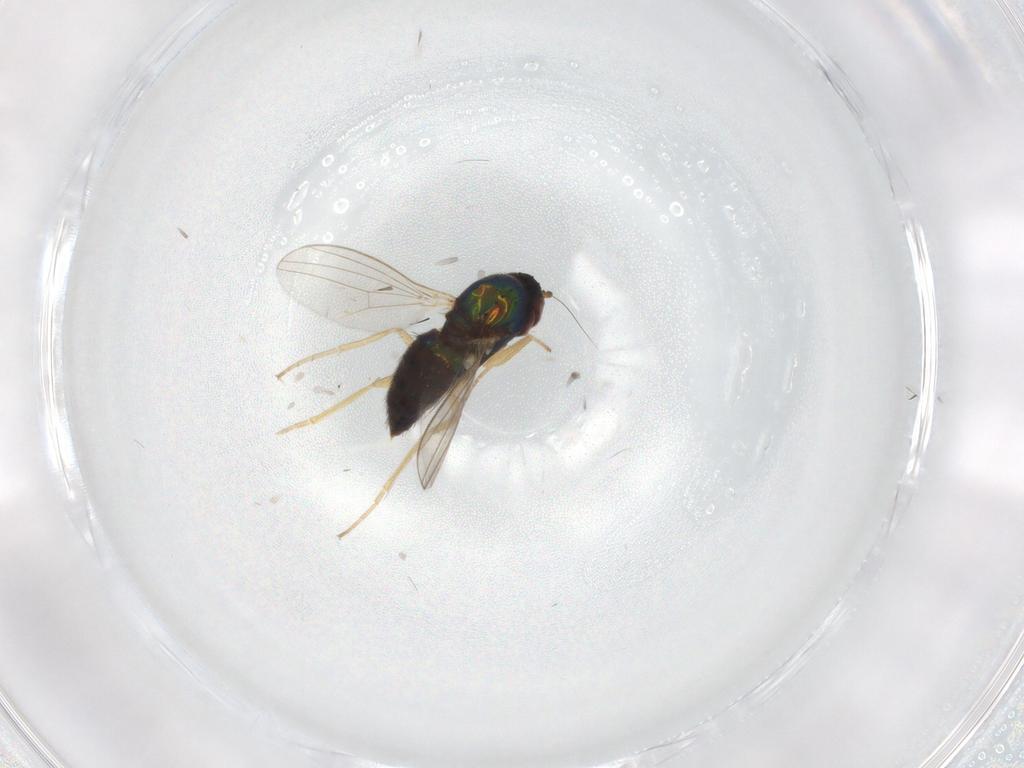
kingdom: Animalia
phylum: Arthropoda
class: Insecta
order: Diptera
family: Dolichopodidae
